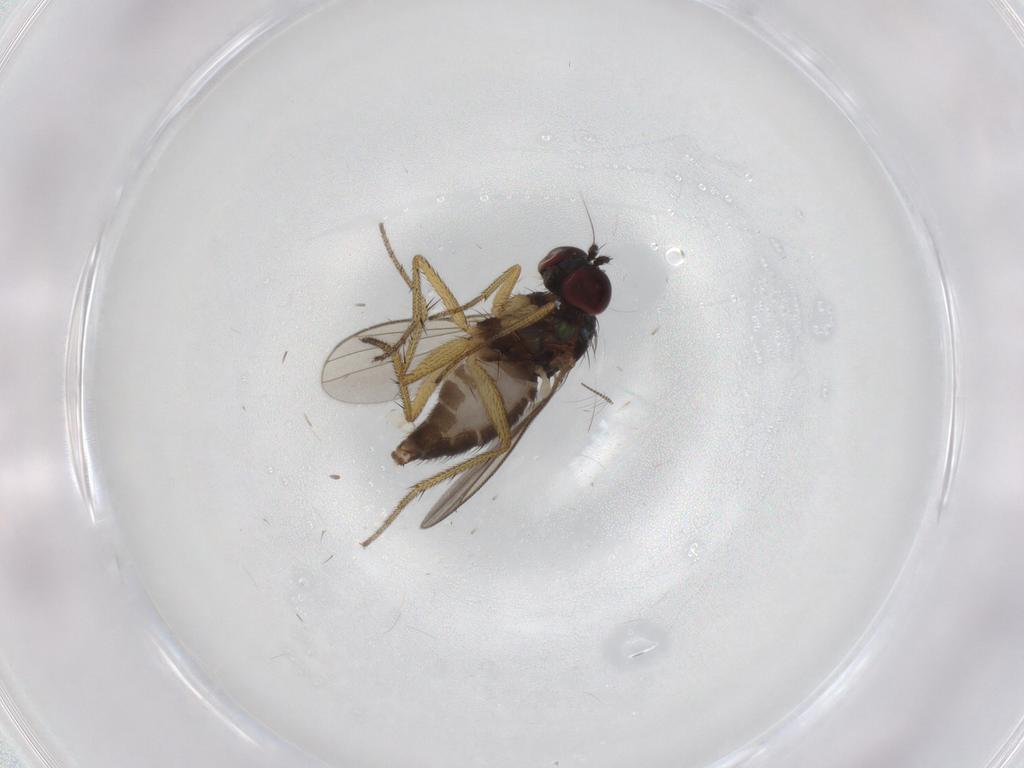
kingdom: Animalia
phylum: Arthropoda
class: Insecta
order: Diptera
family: Chironomidae
